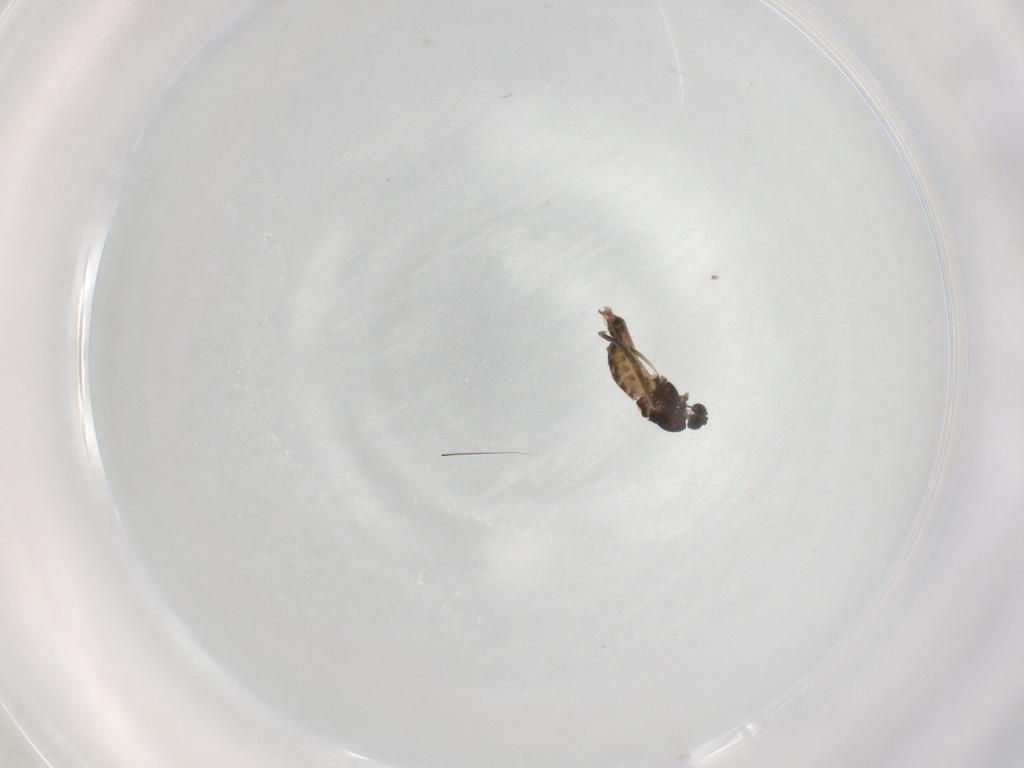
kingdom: Animalia
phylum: Arthropoda
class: Insecta
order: Diptera
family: Cecidomyiidae
